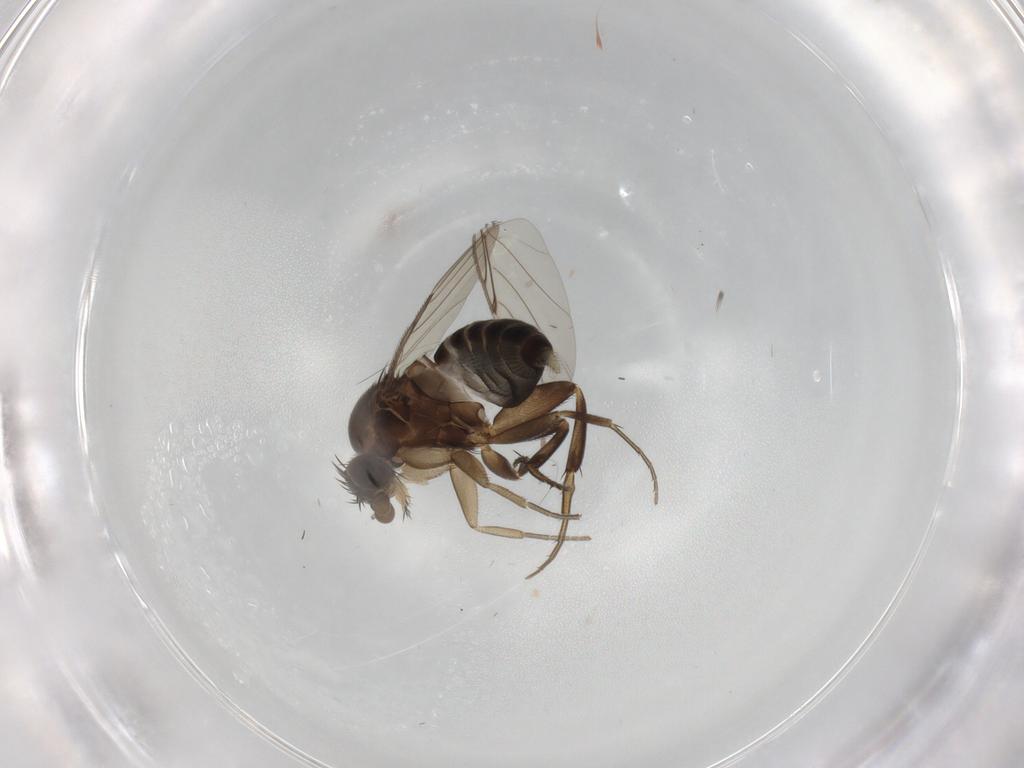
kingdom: Animalia
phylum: Arthropoda
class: Insecta
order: Diptera
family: Phoridae
